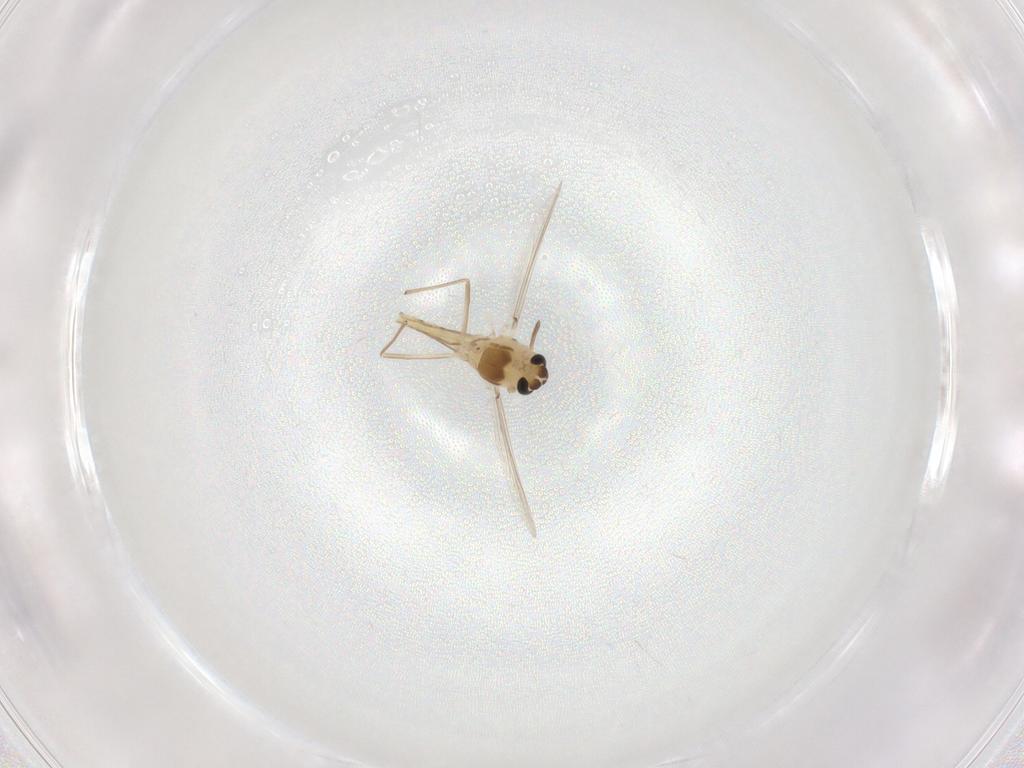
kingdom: Animalia
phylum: Arthropoda
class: Insecta
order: Diptera
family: Chironomidae
